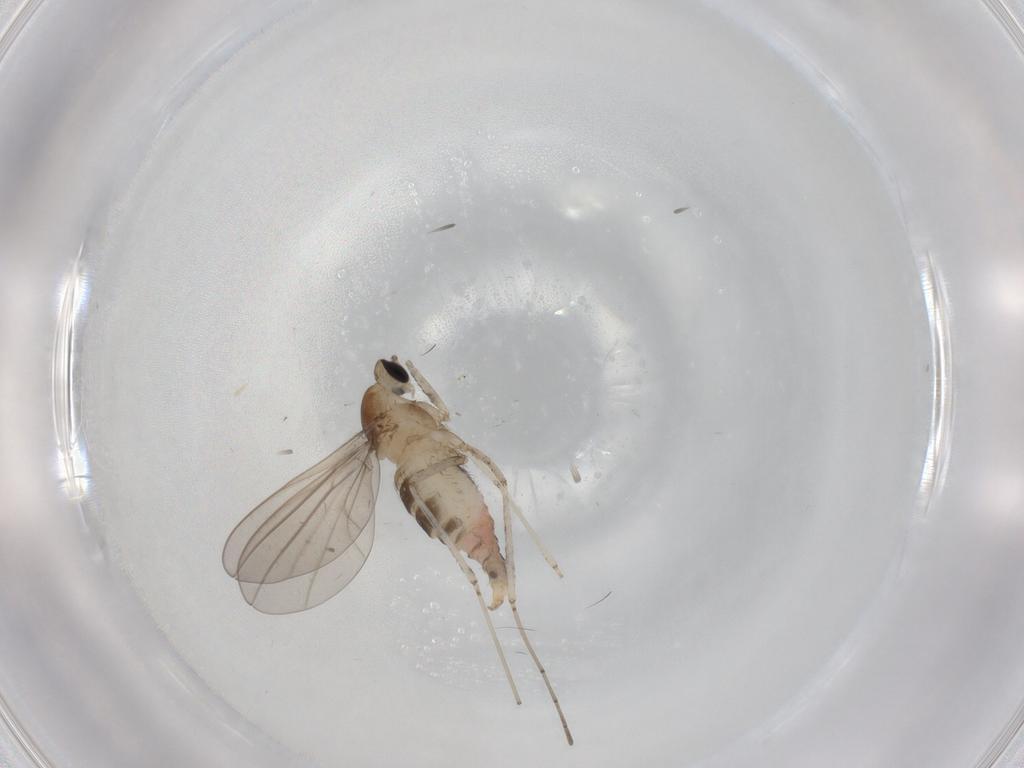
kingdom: Animalia
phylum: Arthropoda
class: Insecta
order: Diptera
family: Cecidomyiidae
